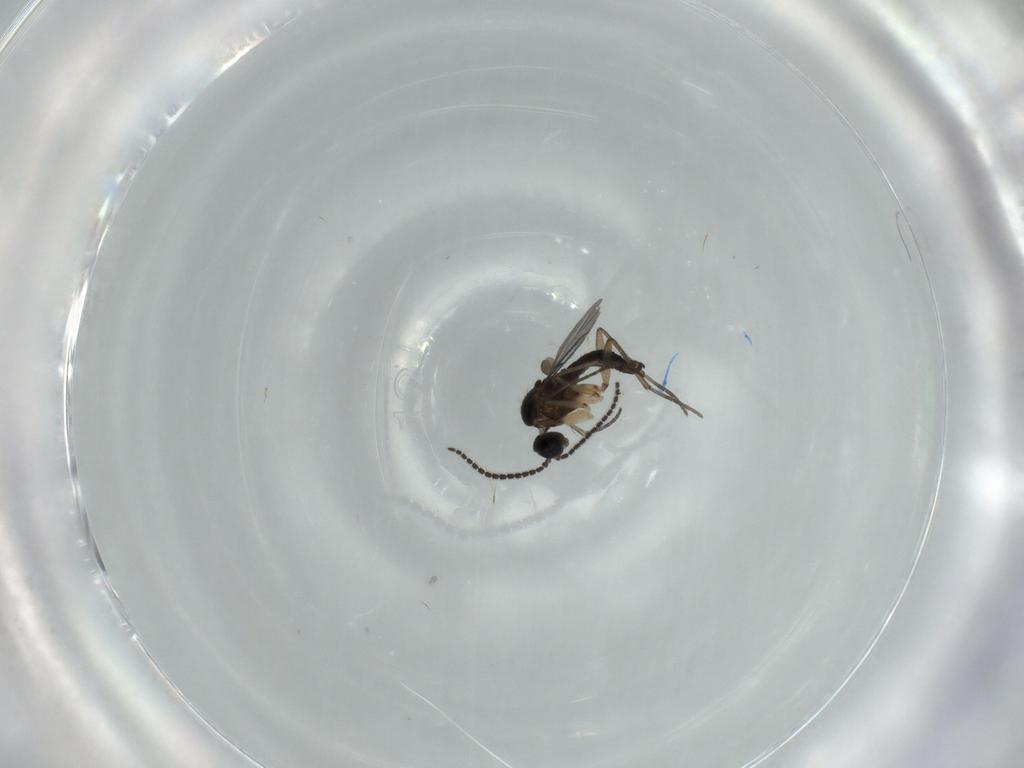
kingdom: Animalia
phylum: Arthropoda
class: Insecta
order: Diptera
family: Sciaridae
